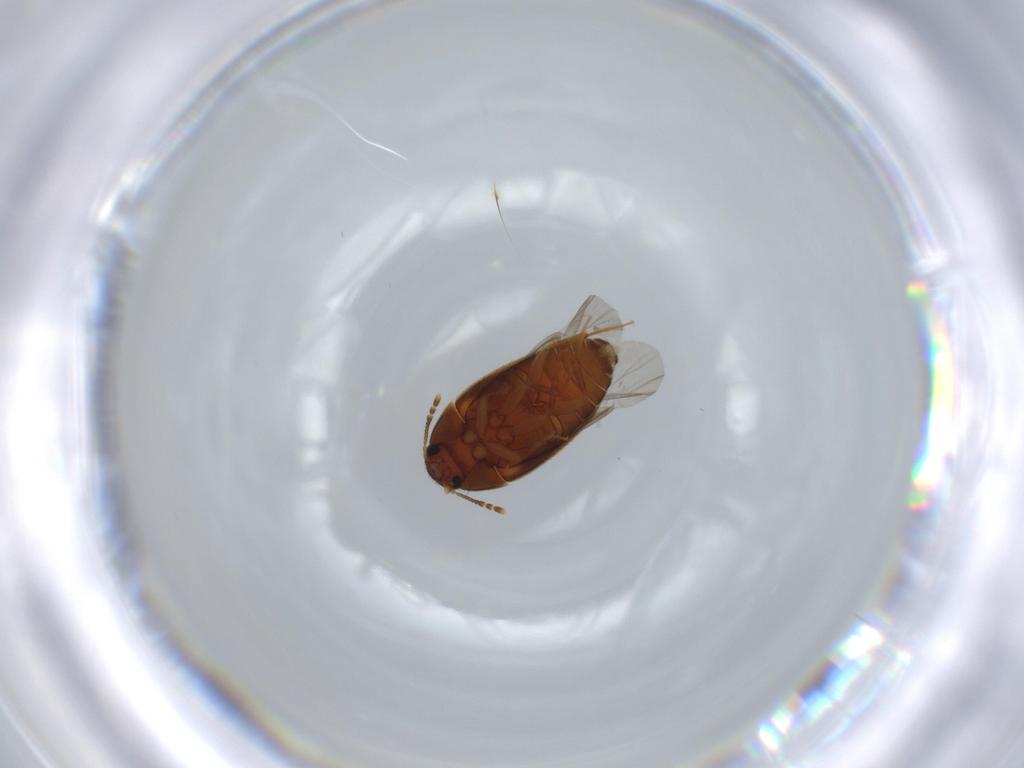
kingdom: Animalia
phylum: Arthropoda
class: Insecta
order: Coleoptera
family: Mycetophagidae
